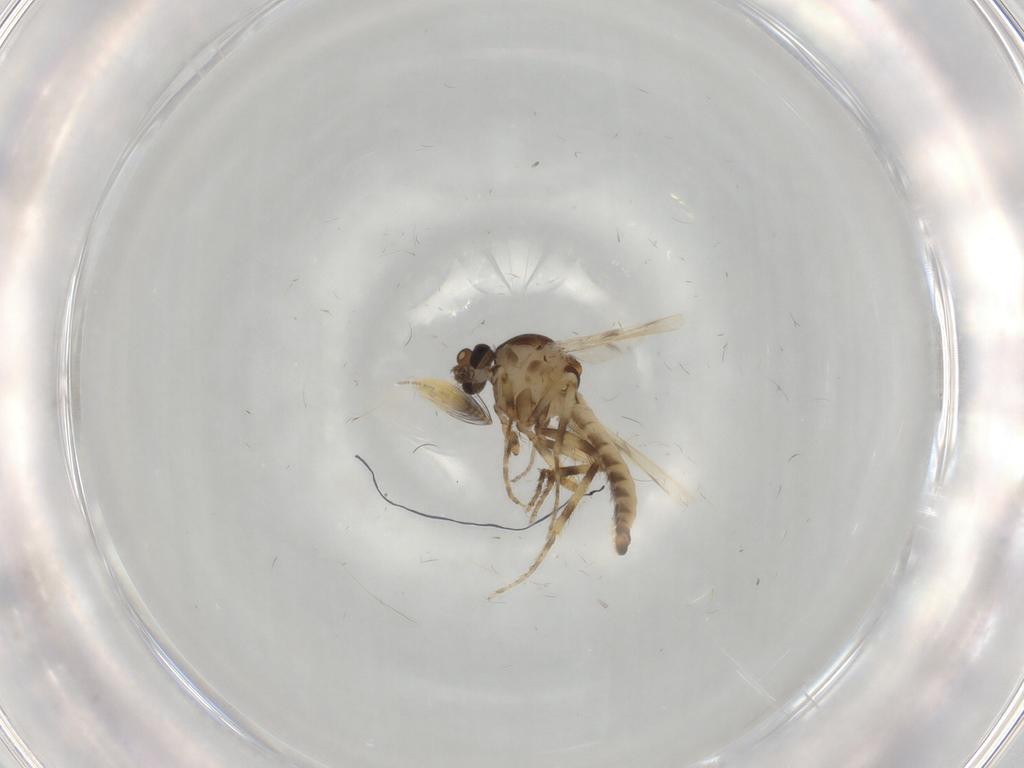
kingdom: Animalia
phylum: Arthropoda
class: Insecta
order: Diptera
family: Ceratopogonidae
